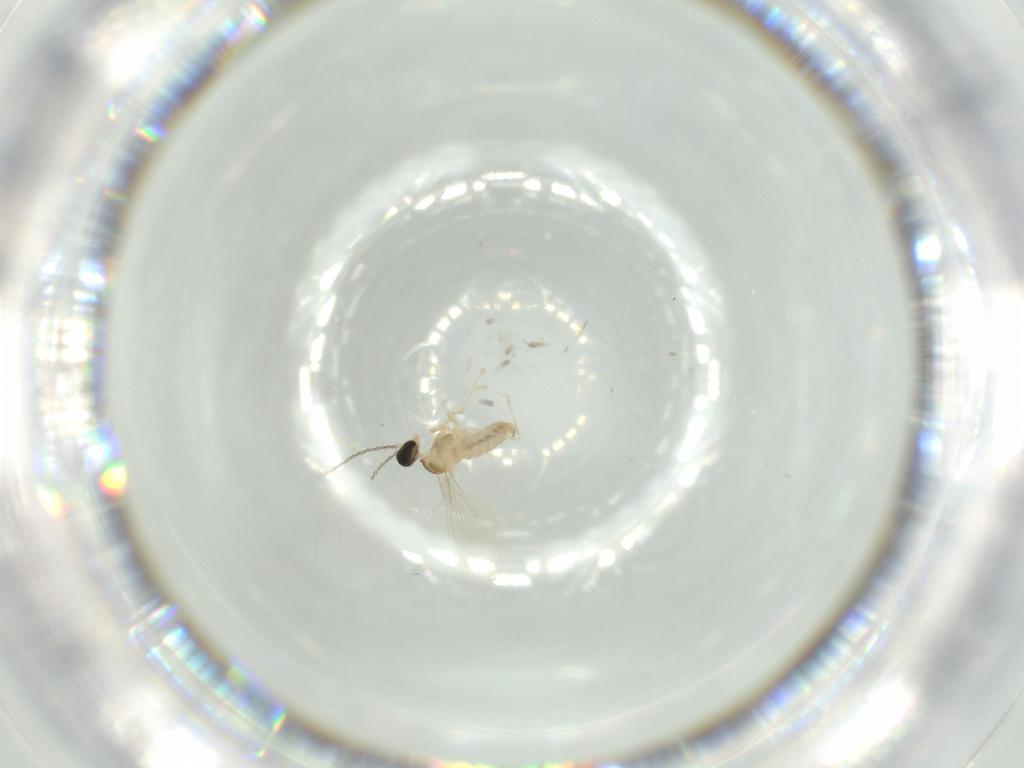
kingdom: Animalia
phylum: Arthropoda
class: Insecta
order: Diptera
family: Cecidomyiidae
